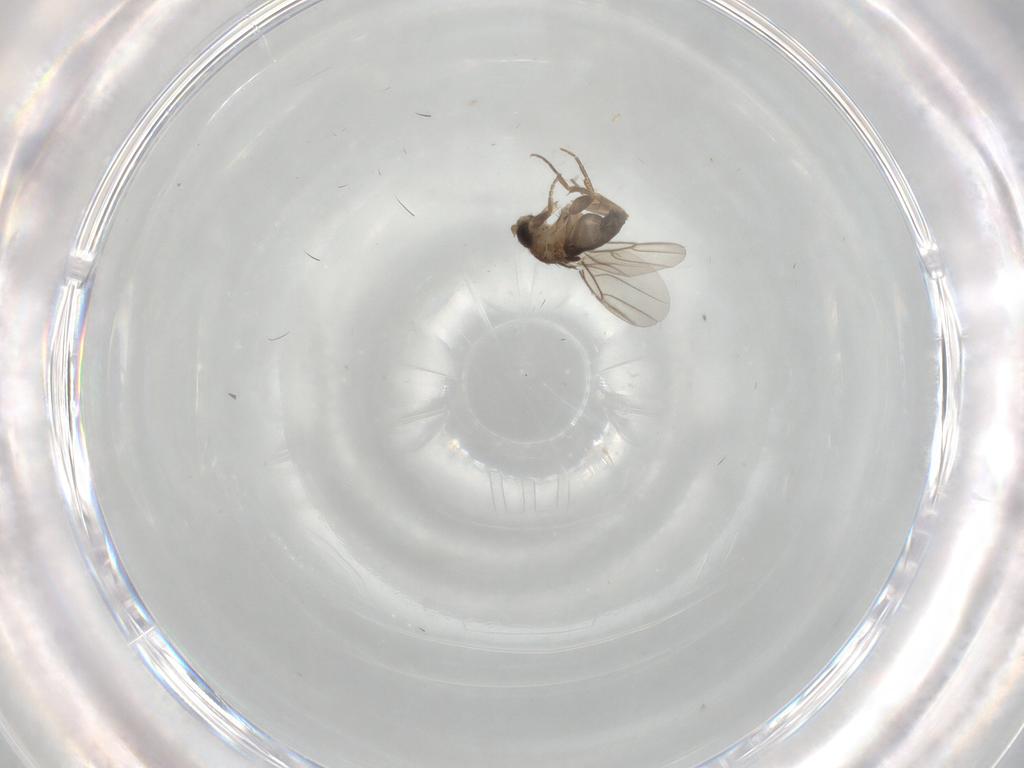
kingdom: Animalia
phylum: Arthropoda
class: Insecta
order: Diptera
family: Phoridae
